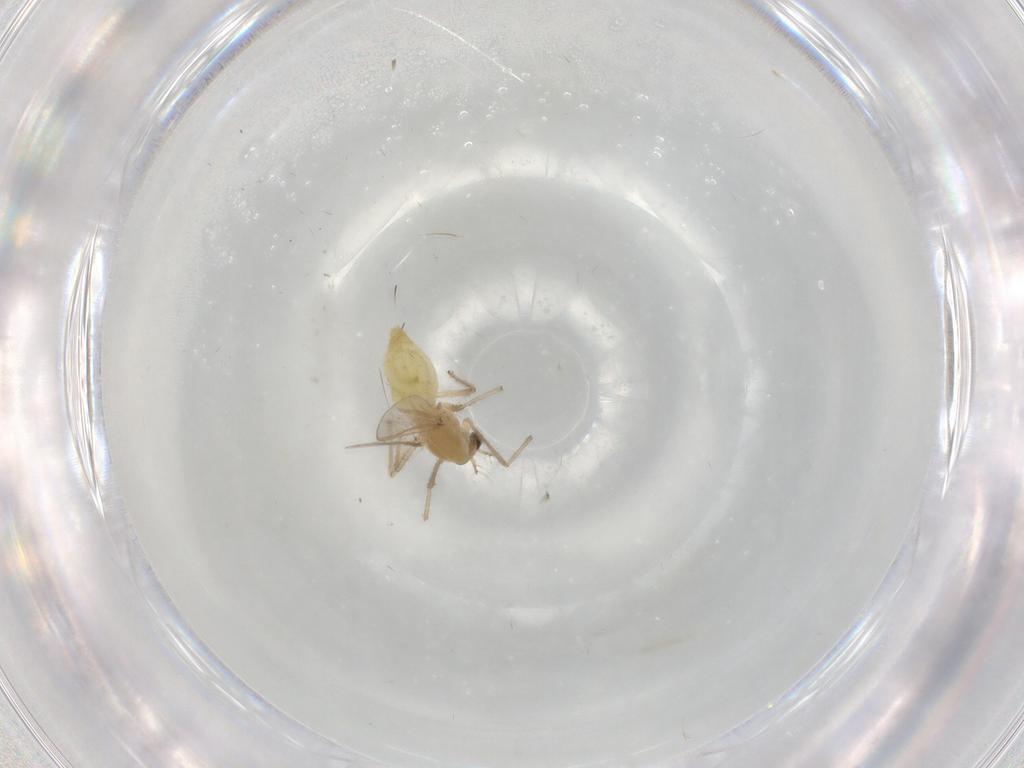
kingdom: Animalia
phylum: Arthropoda
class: Insecta
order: Diptera
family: Chironomidae
